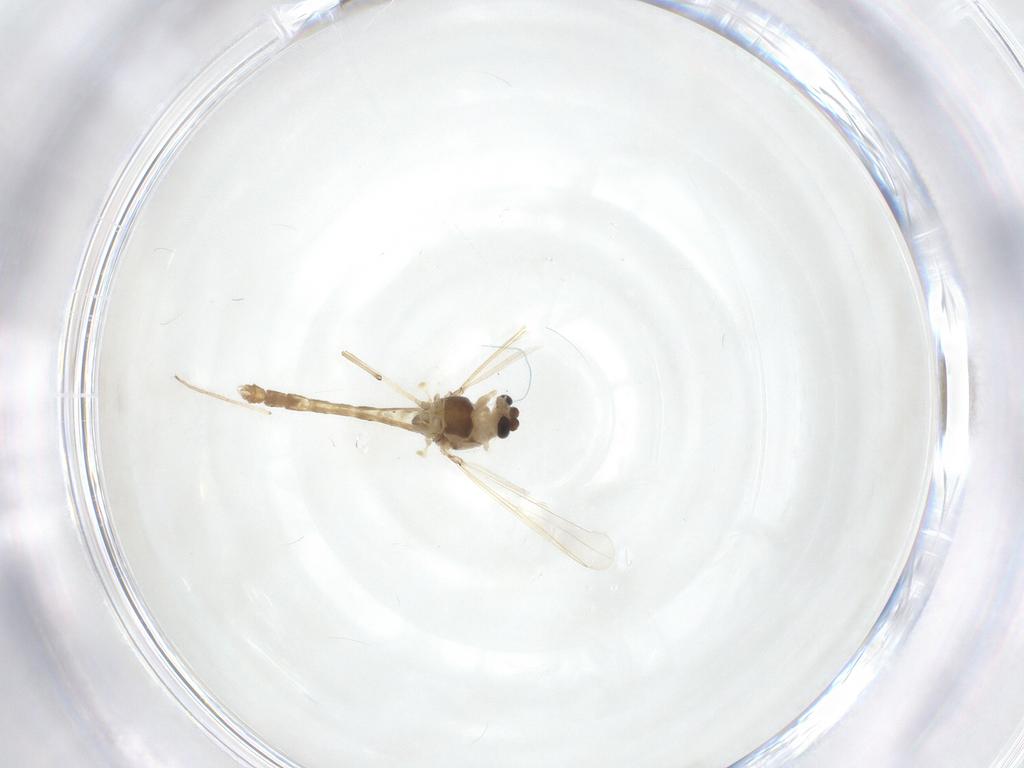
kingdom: Animalia
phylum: Arthropoda
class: Insecta
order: Diptera
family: Chironomidae
